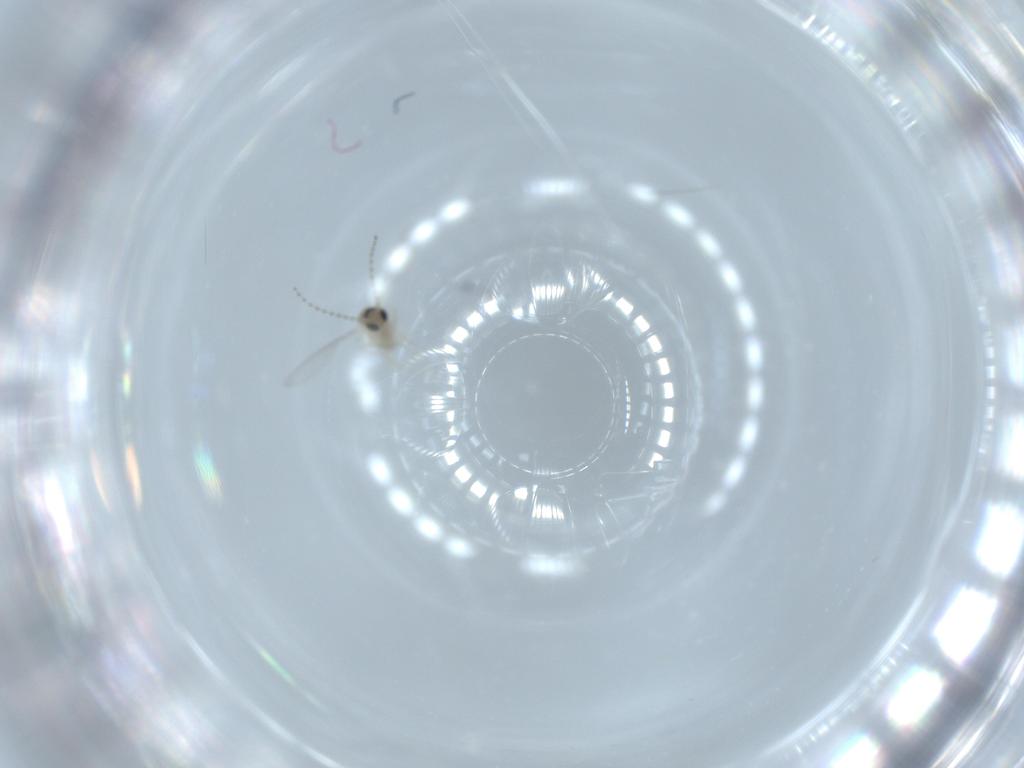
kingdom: Animalia
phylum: Arthropoda
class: Insecta
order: Diptera
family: Cecidomyiidae
